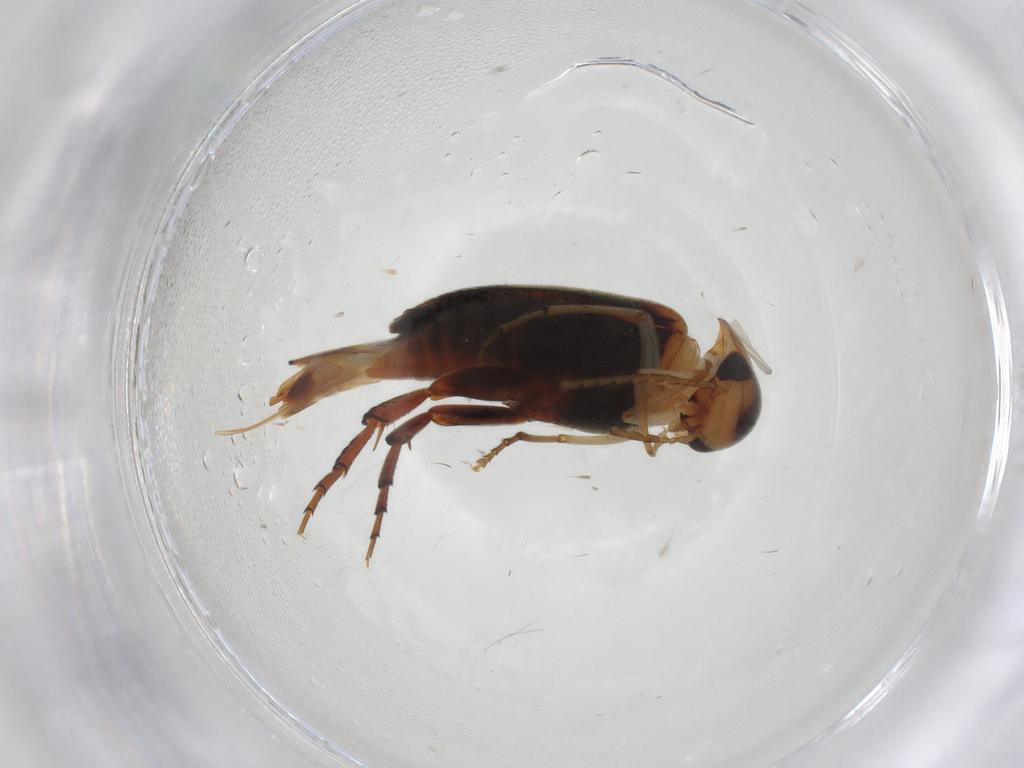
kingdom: Animalia
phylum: Arthropoda
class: Insecta
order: Coleoptera
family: Mordellidae
